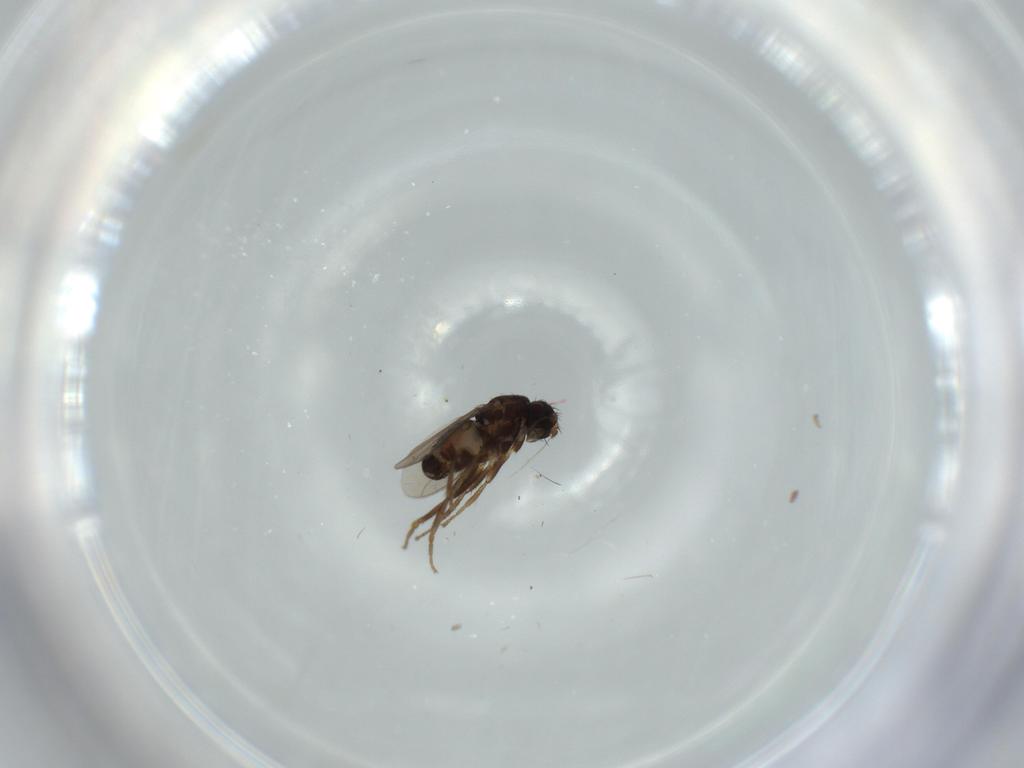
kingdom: Animalia
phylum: Arthropoda
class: Insecta
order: Diptera
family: Sphaeroceridae
